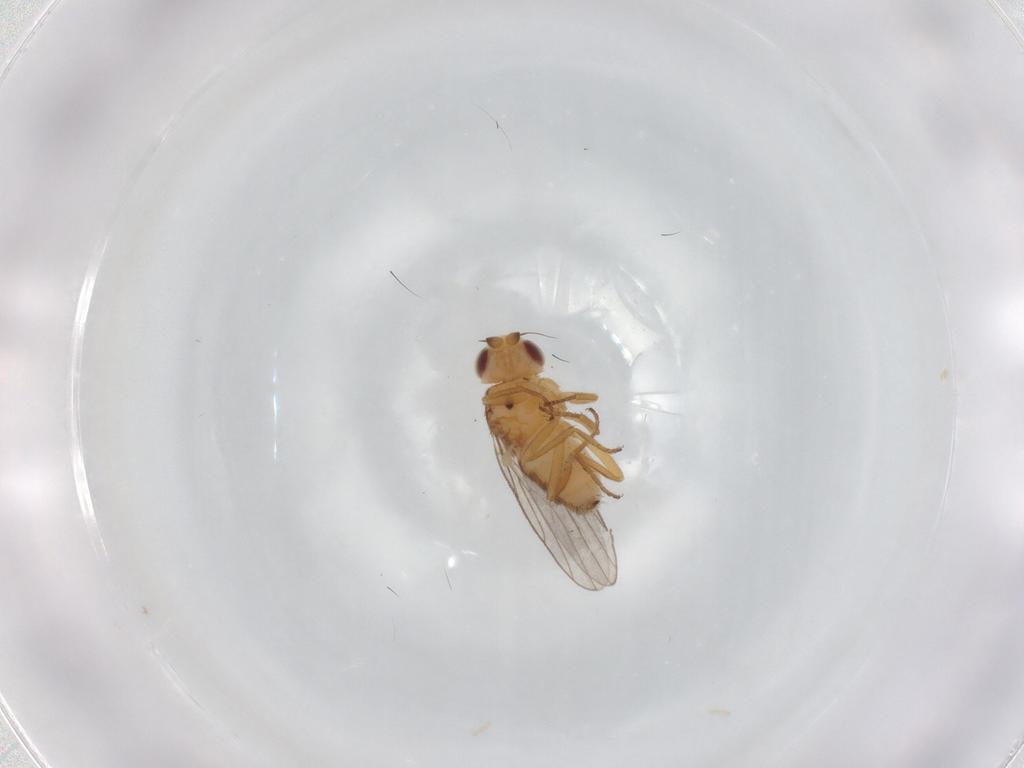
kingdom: Animalia
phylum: Arthropoda
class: Insecta
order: Diptera
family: Chloropidae
